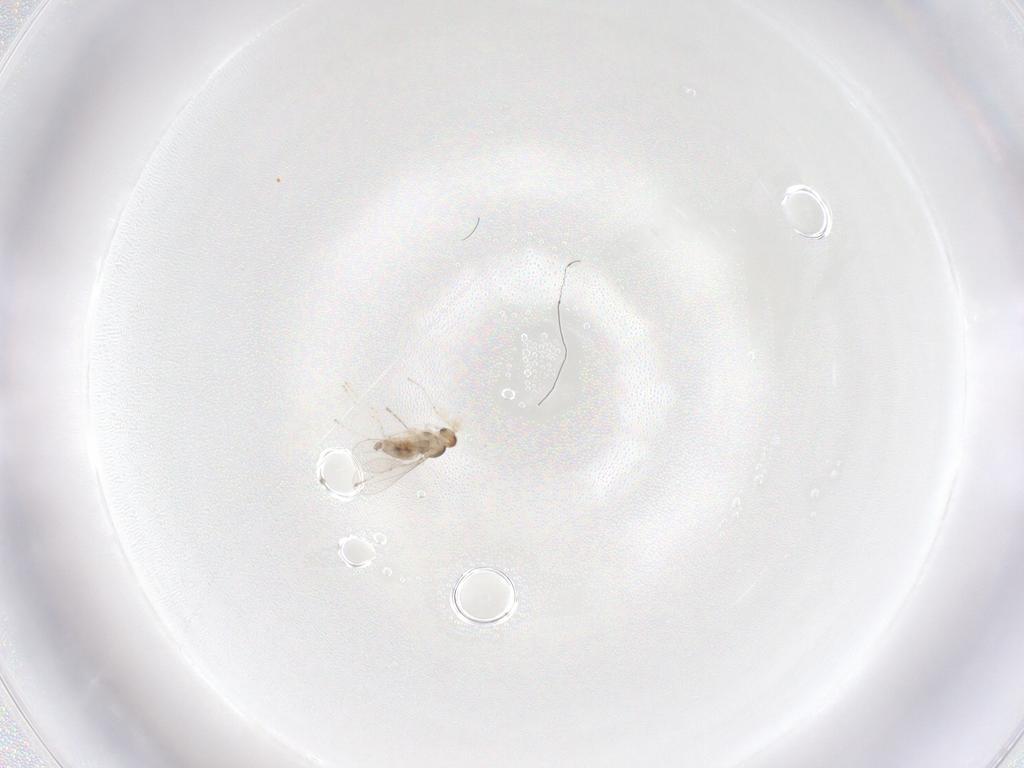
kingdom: Animalia
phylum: Arthropoda
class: Insecta
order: Diptera
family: Cecidomyiidae
